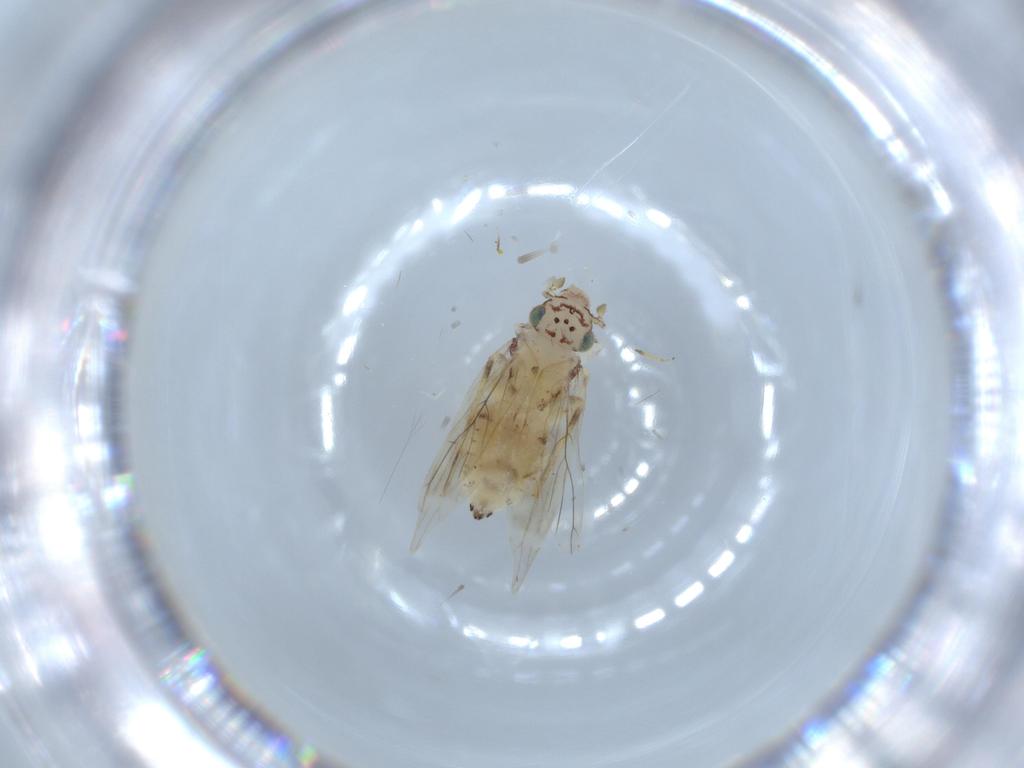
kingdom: Animalia
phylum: Arthropoda
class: Insecta
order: Psocodea
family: Lepidopsocidae
